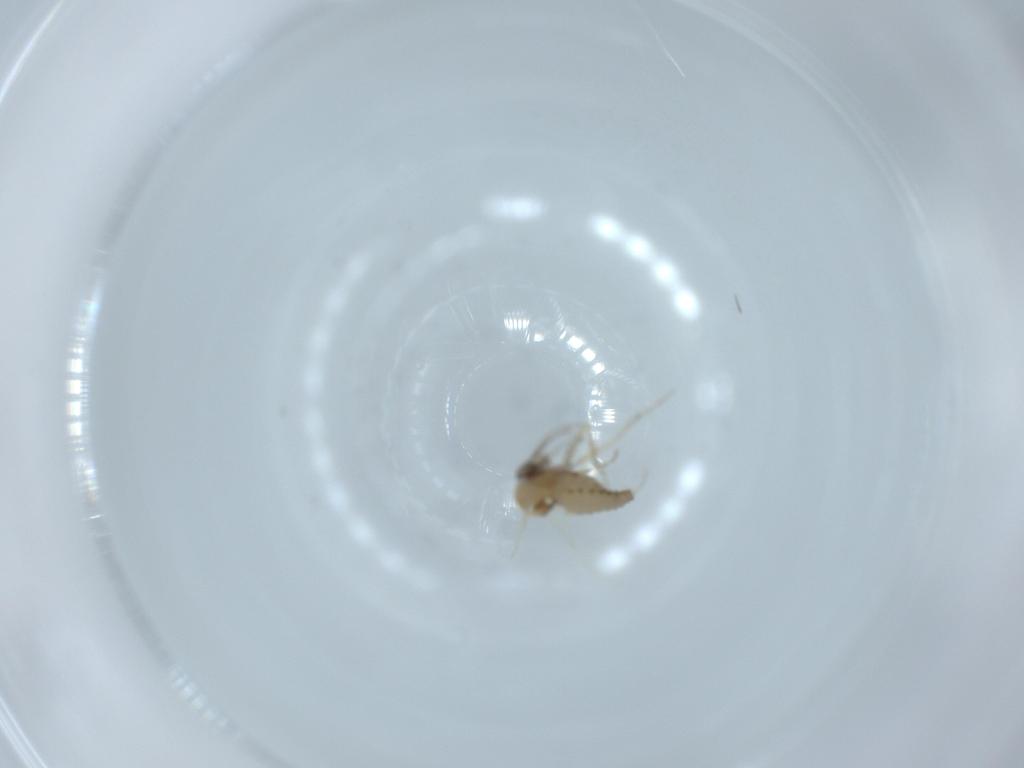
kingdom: Animalia
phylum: Arthropoda
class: Insecta
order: Diptera
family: Ceratopogonidae
